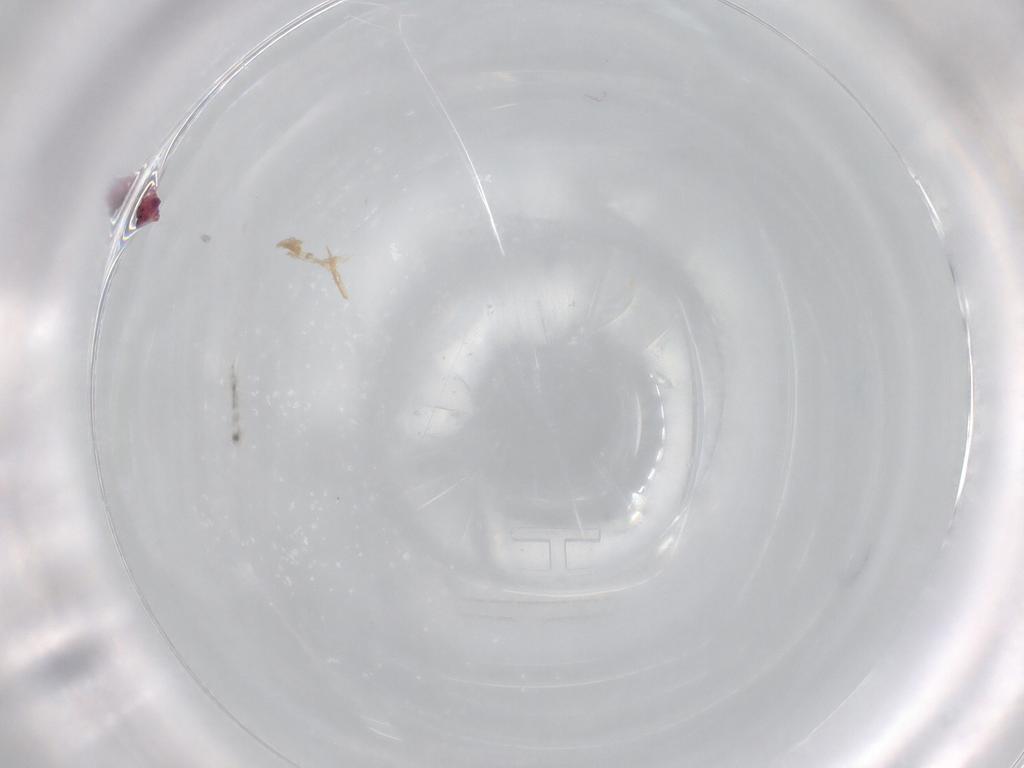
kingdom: Animalia
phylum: Arthropoda
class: Collembola
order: Symphypleona
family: Sminthurididae
